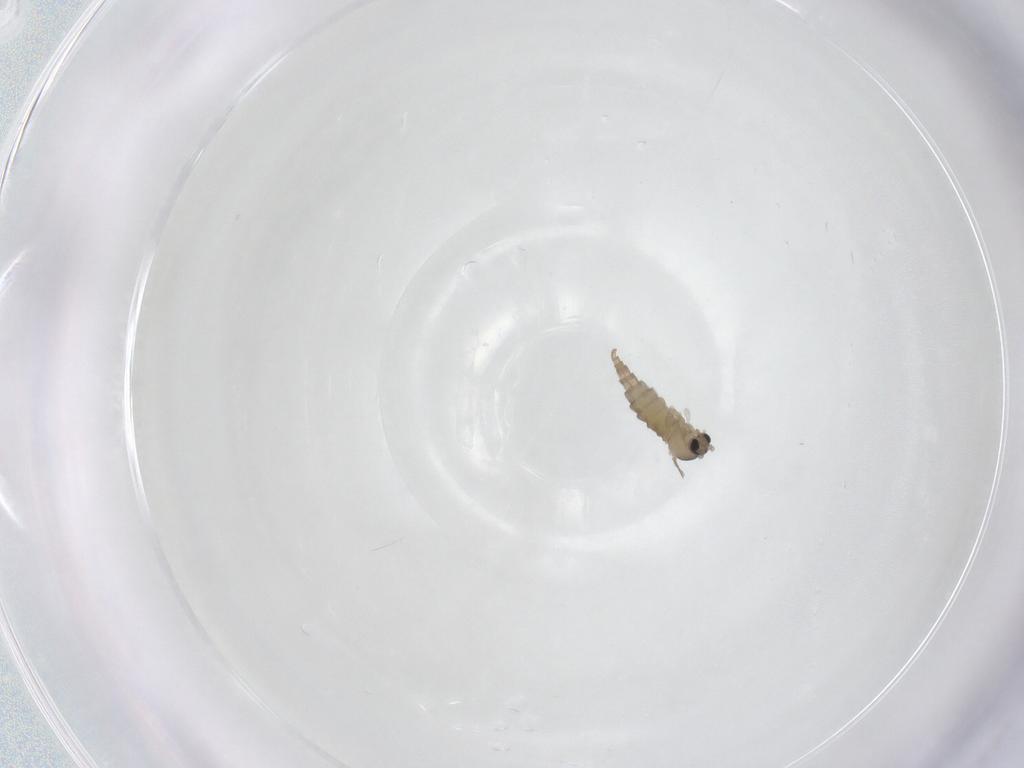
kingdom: Animalia
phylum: Arthropoda
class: Insecta
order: Diptera
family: Cecidomyiidae
